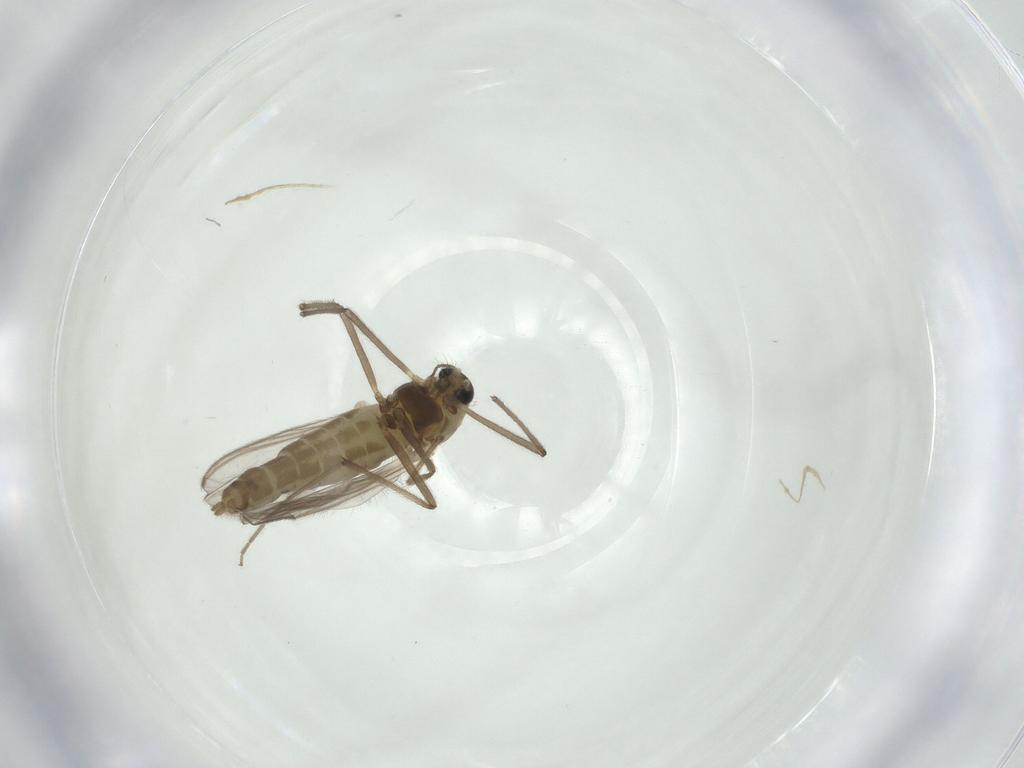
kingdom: Animalia
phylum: Arthropoda
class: Insecta
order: Diptera
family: Chironomidae
